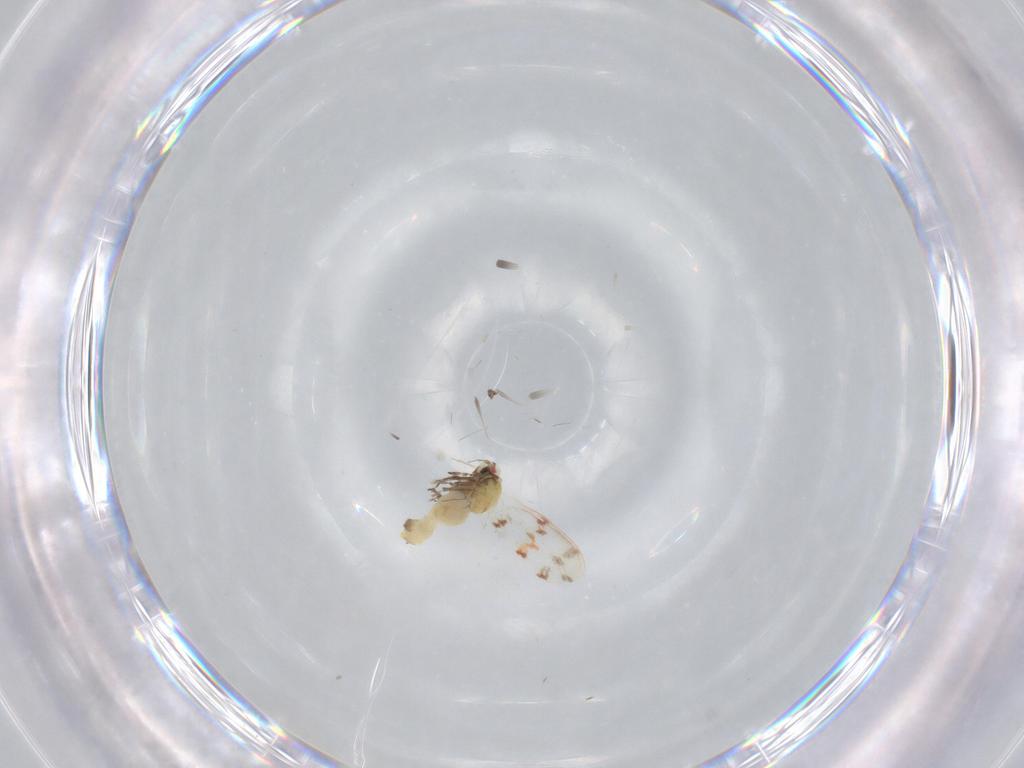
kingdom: Animalia
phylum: Arthropoda
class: Insecta
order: Hemiptera
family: Aleyrodidae
